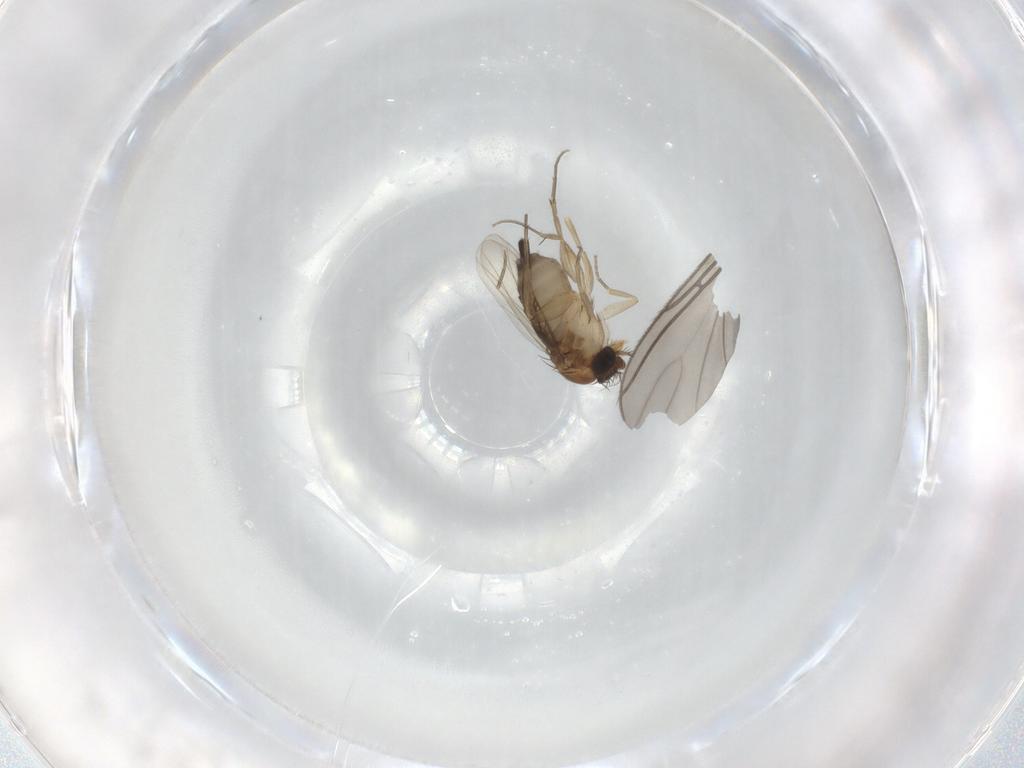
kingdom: Animalia
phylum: Arthropoda
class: Insecta
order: Diptera
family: Phoridae
